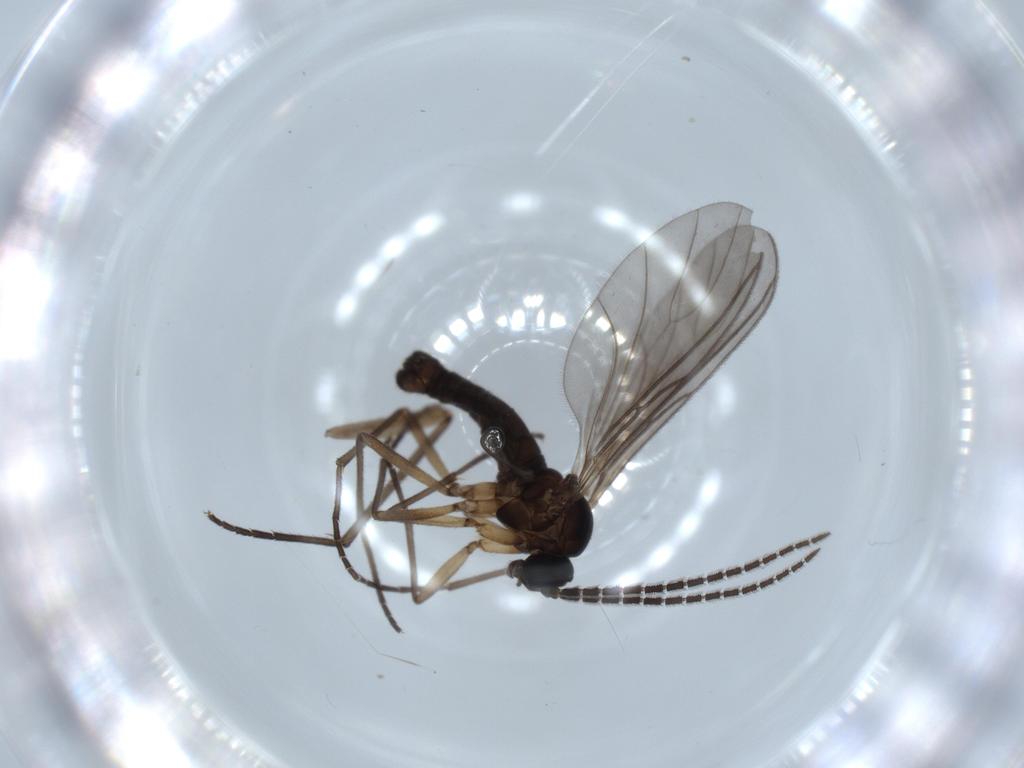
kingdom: Animalia
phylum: Arthropoda
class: Insecta
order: Diptera
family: Sciaridae
